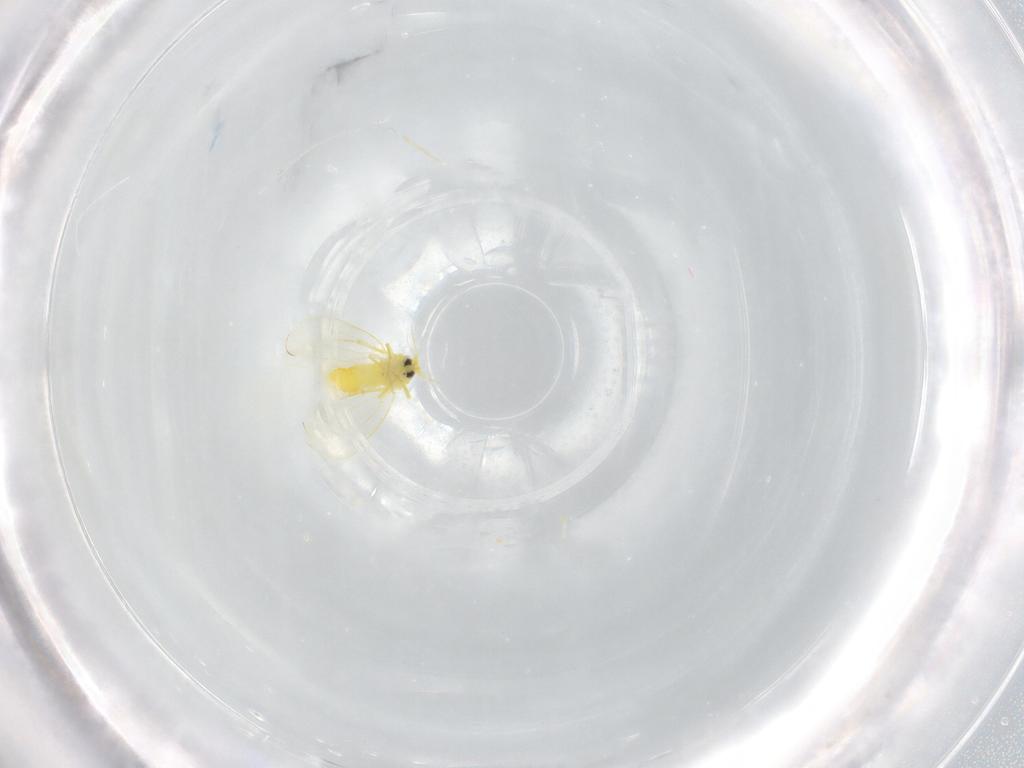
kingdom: Animalia
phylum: Arthropoda
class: Insecta
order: Hemiptera
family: Aleyrodidae
